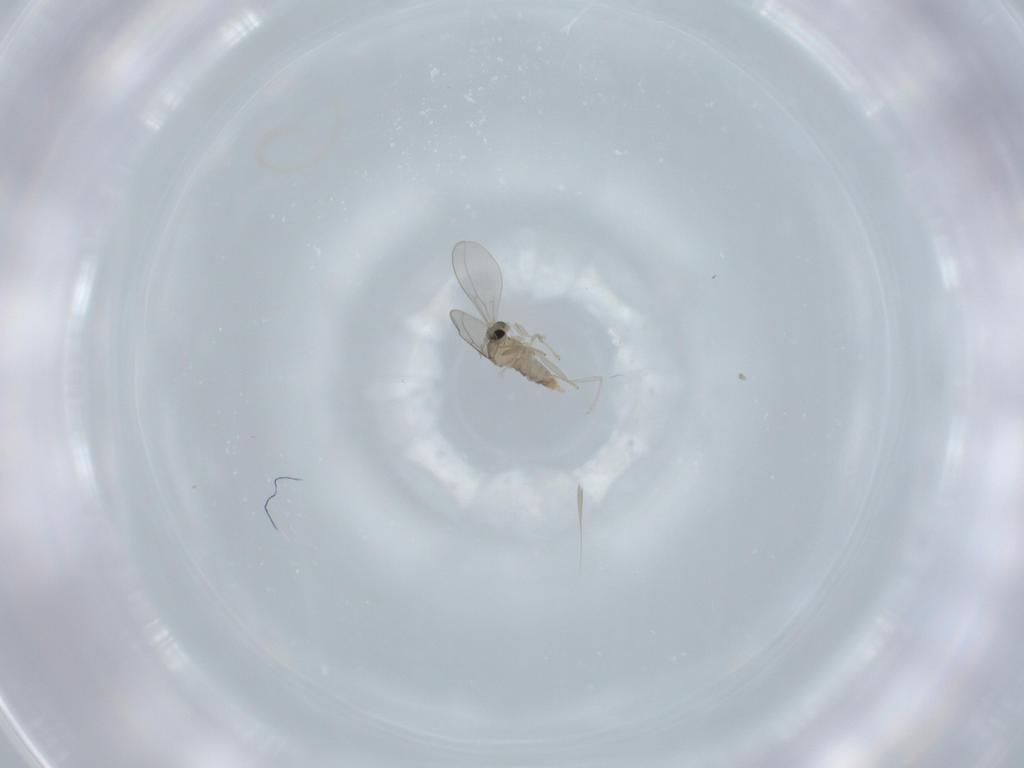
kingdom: Animalia
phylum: Arthropoda
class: Insecta
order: Diptera
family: Cecidomyiidae
